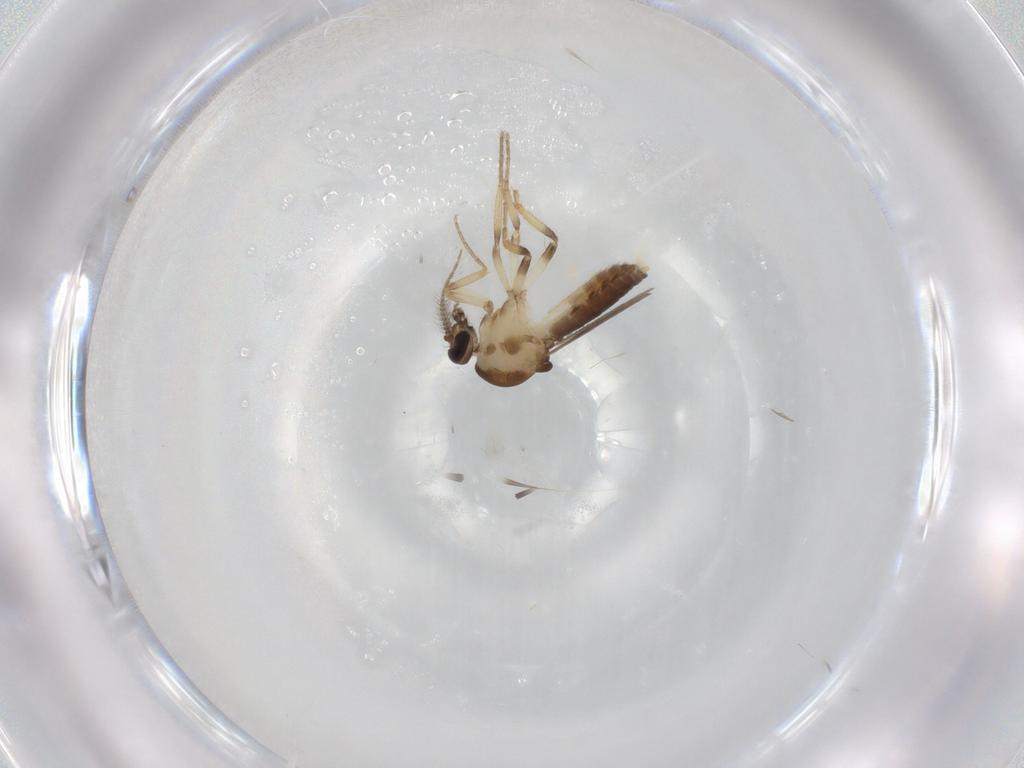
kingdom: Animalia
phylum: Arthropoda
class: Insecta
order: Diptera
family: Ceratopogonidae
